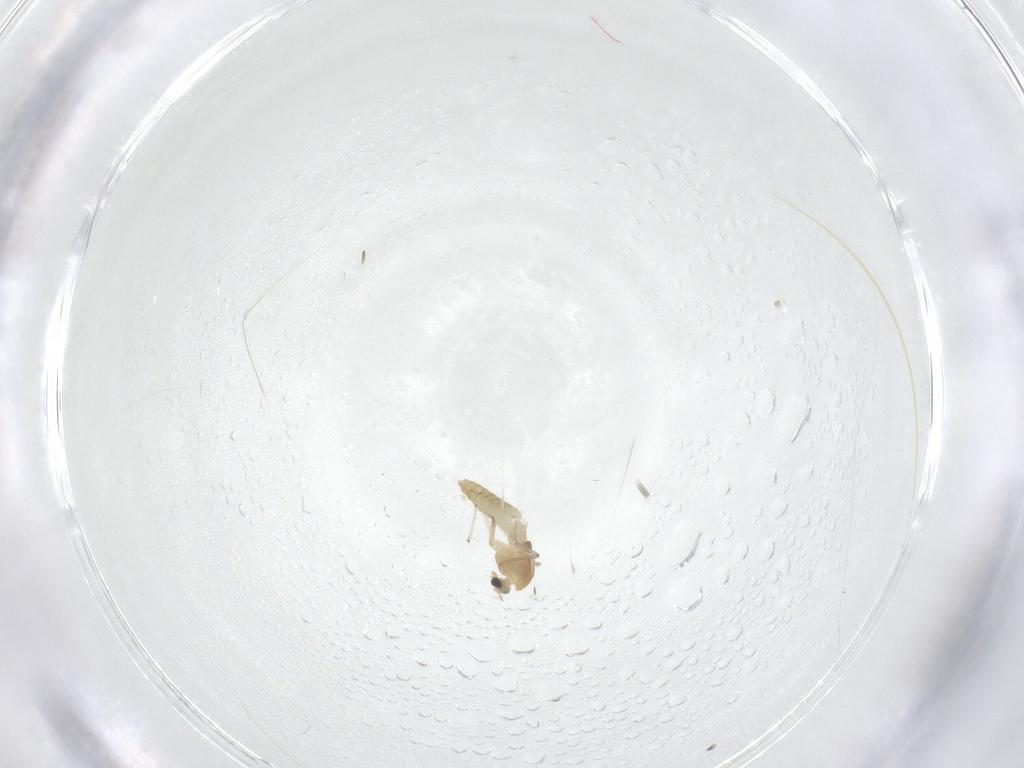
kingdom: Animalia
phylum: Arthropoda
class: Insecta
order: Diptera
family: Chironomidae
